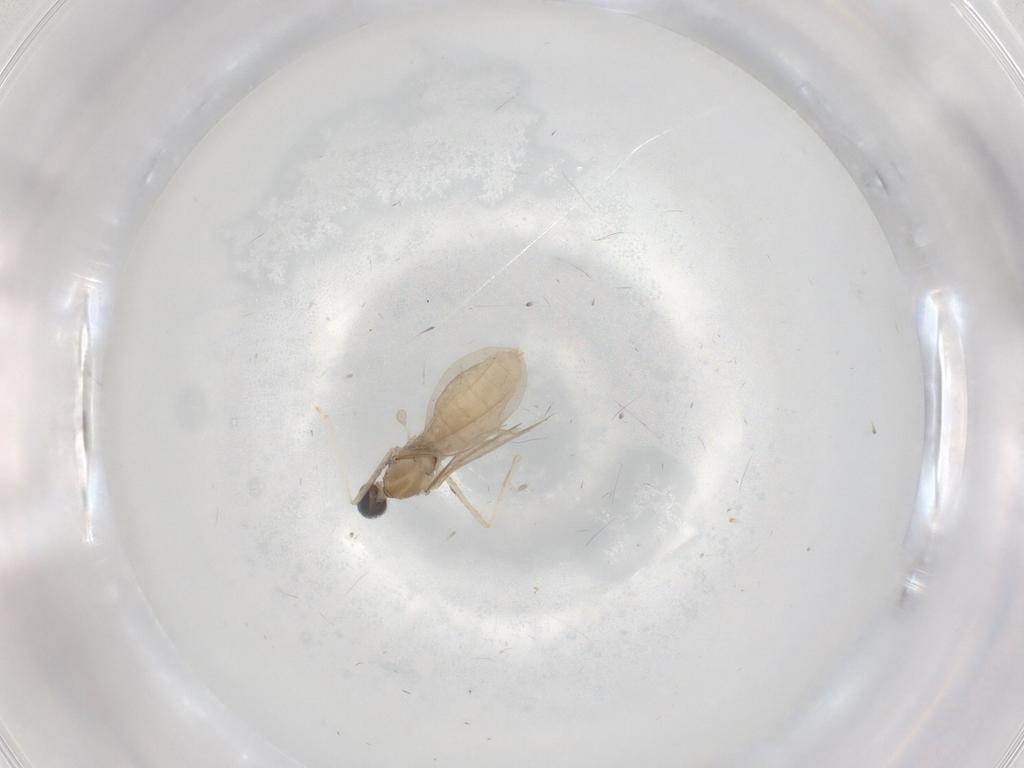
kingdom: Animalia
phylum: Arthropoda
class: Insecta
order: Diptera
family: Cecidomyiidae
